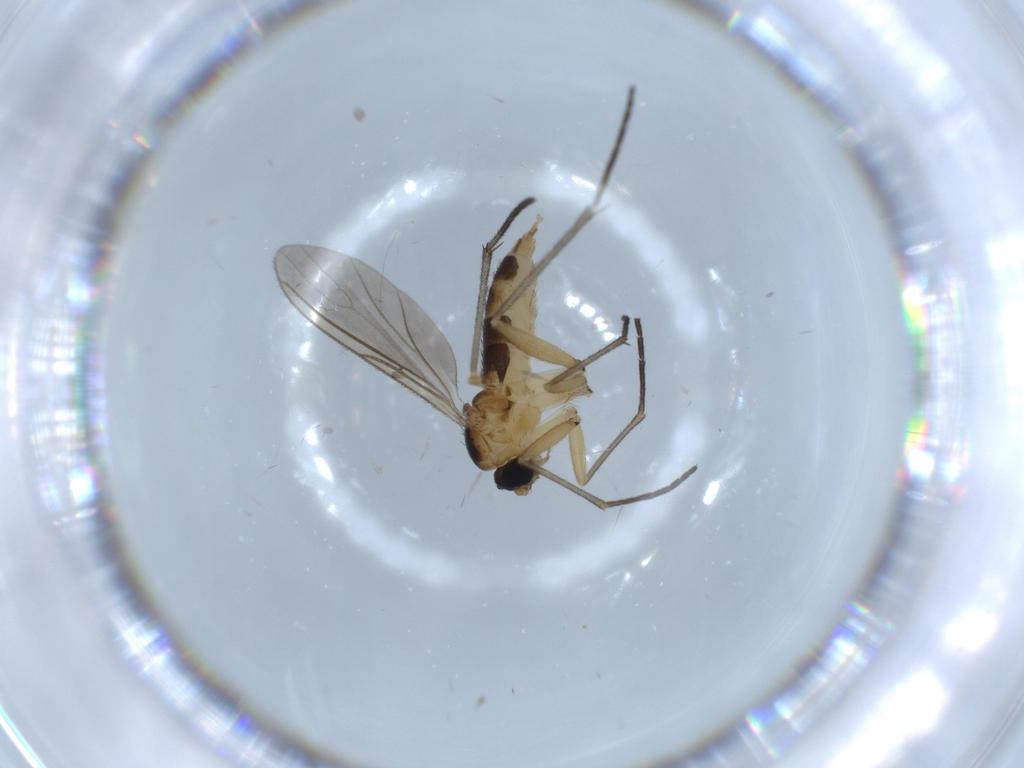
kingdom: Animalia
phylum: Arthropoda
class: Insecta
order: Diptera
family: Sciaridae
